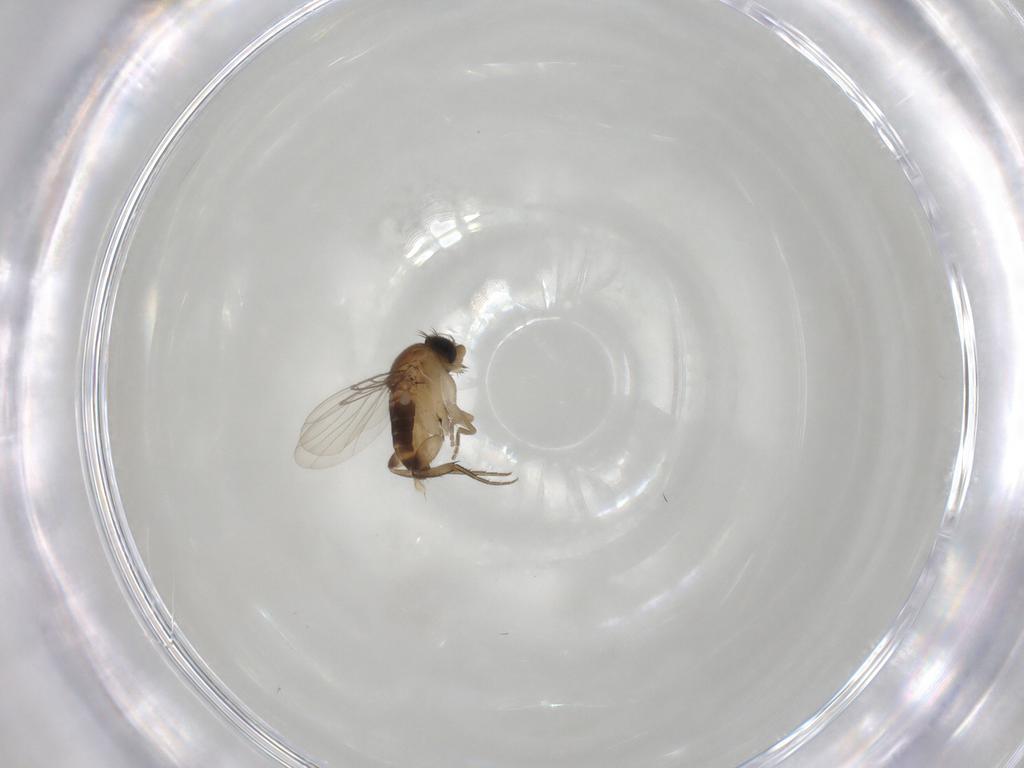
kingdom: Animalia
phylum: Arthropoda
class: Insecta
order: Diptera
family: Phoridae
